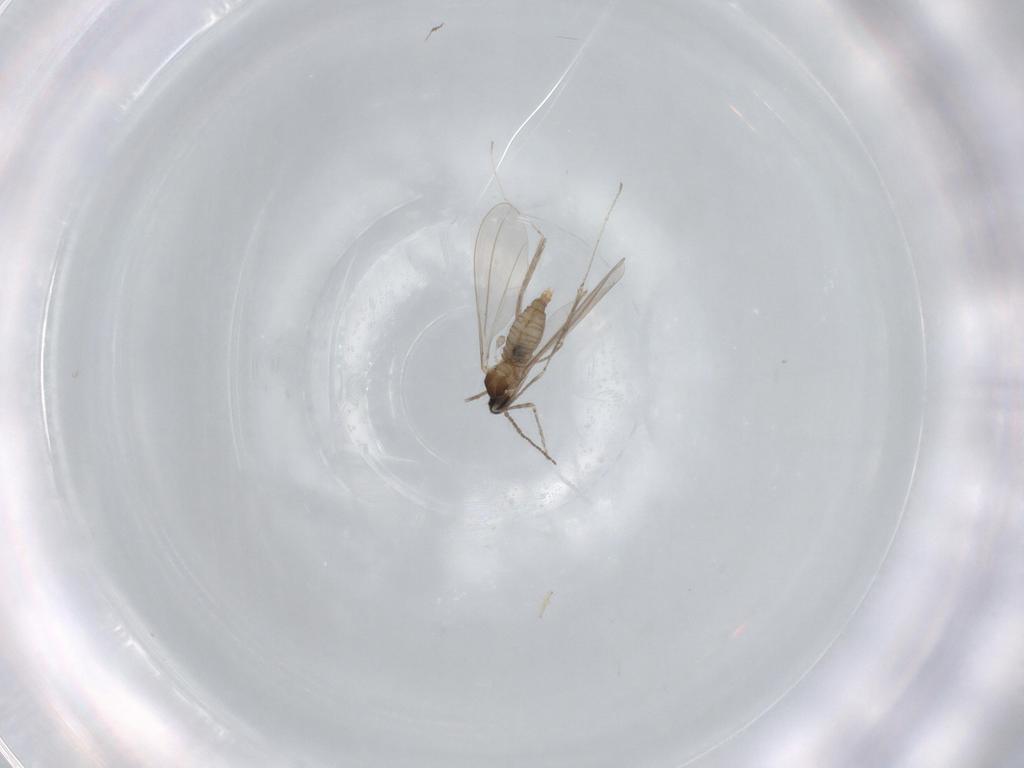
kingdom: Animalia
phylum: Arthropoda
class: Insecta
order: Diptera
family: Cecidomyiidae
